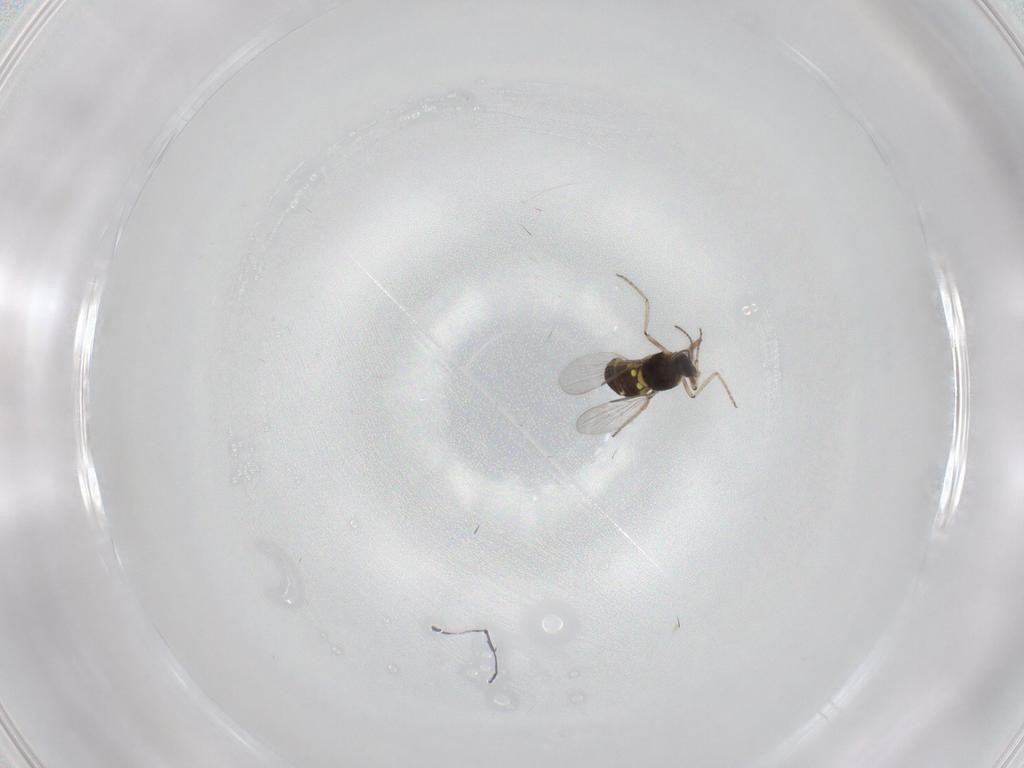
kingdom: Animalia
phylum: Arthropoda
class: Insecta
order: Diptera
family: Ceratopogonidae
